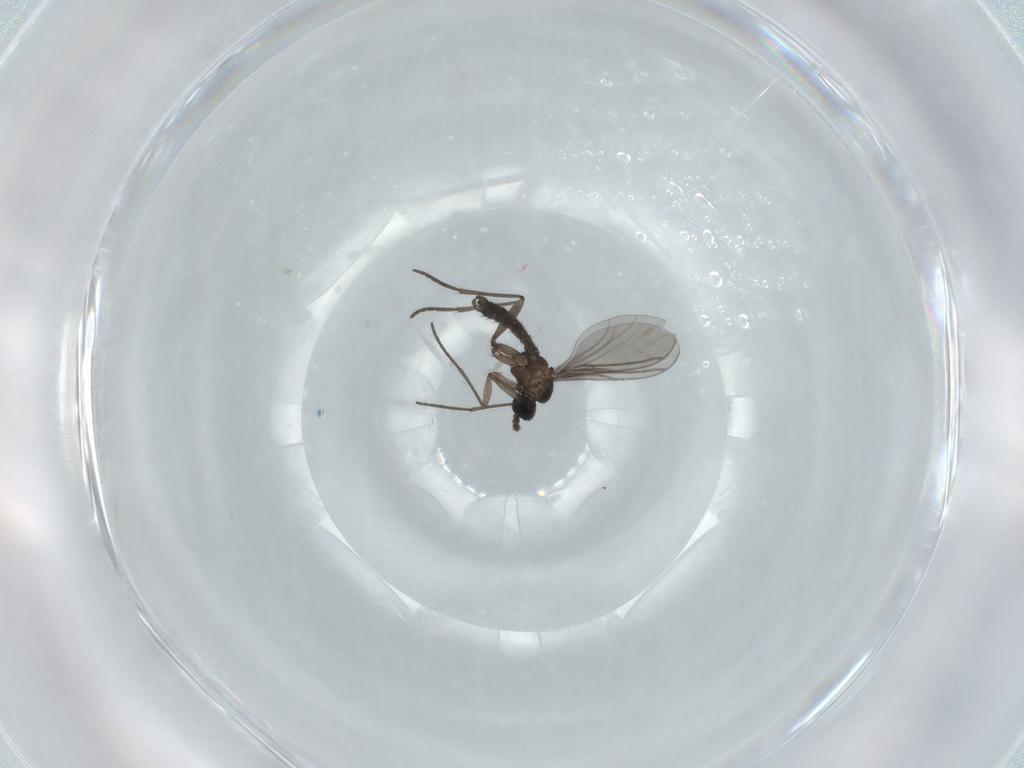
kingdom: Animalia
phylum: Arthropoda
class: Insecta
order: Diptera
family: Sciaridae
